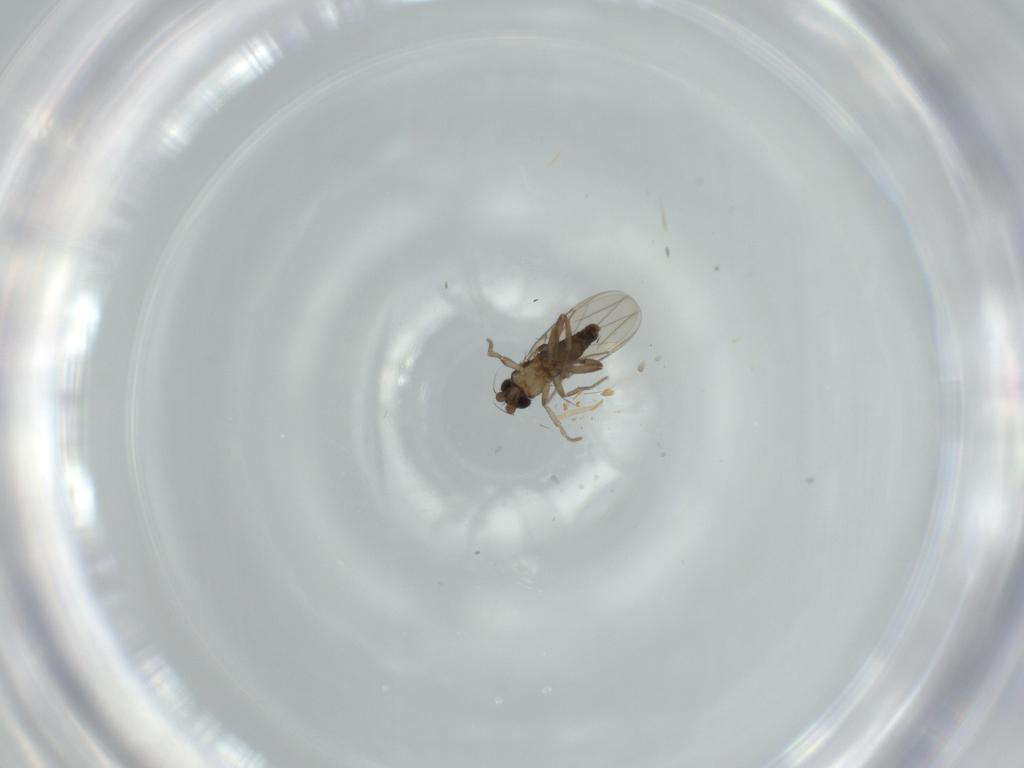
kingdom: Animalia
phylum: Arthropoda
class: Insecta
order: Diptera
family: Phoridae
